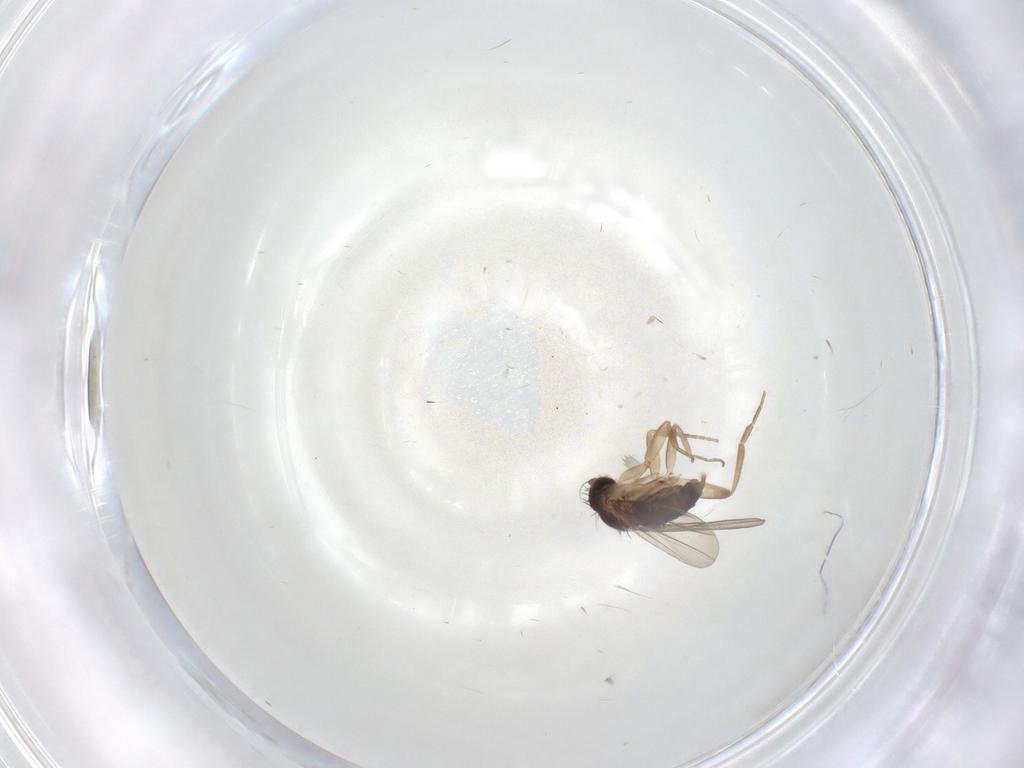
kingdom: Animalia
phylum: Arthropoda
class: Insecta
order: Diptera
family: Phoridae
